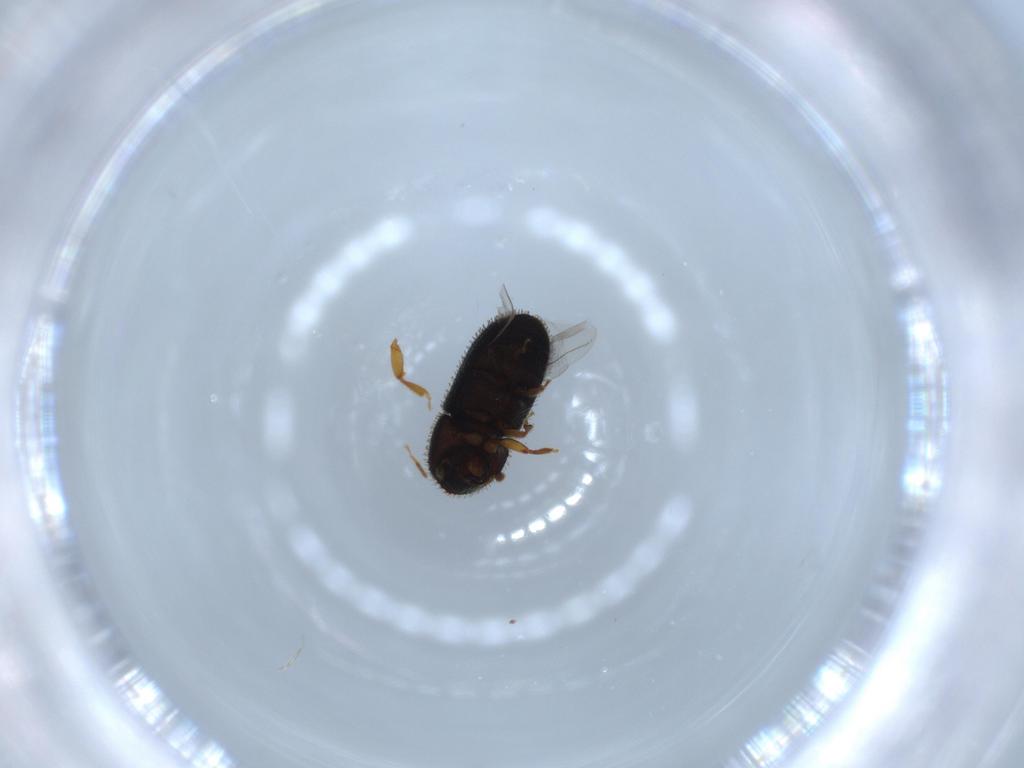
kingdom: Animalia
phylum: Arthropoda
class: Insecta
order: Coleoptera
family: Curculionidae
